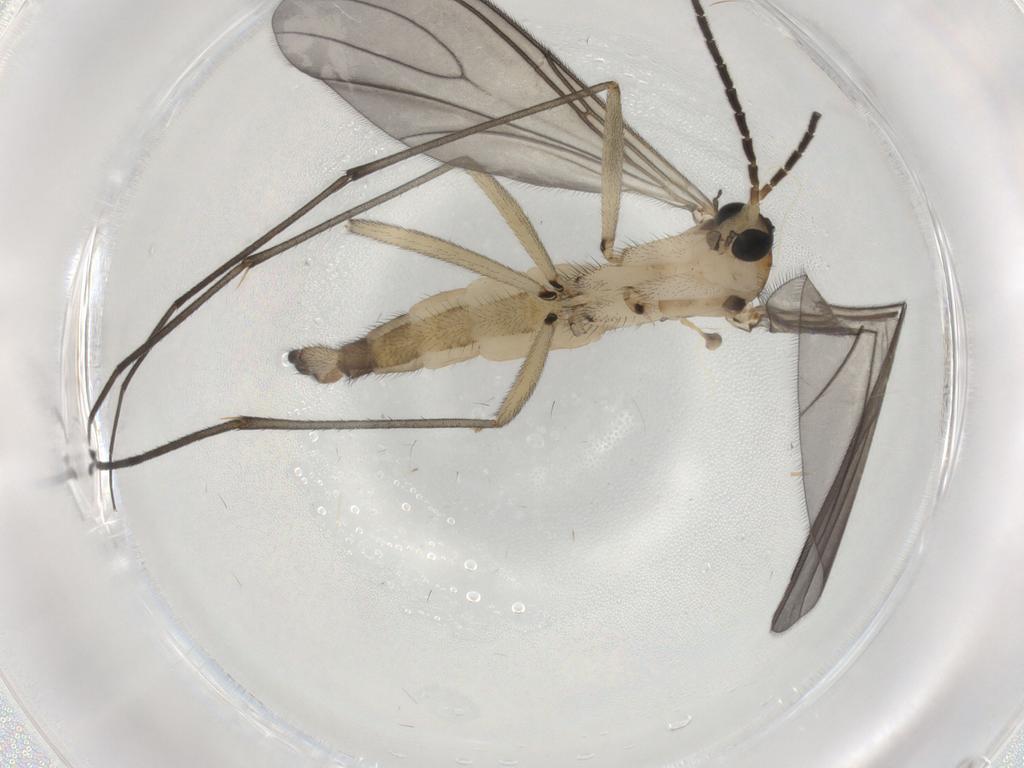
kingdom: Animalia
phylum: Arthropoda
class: Insecta
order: Diptera
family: Sciaridae
